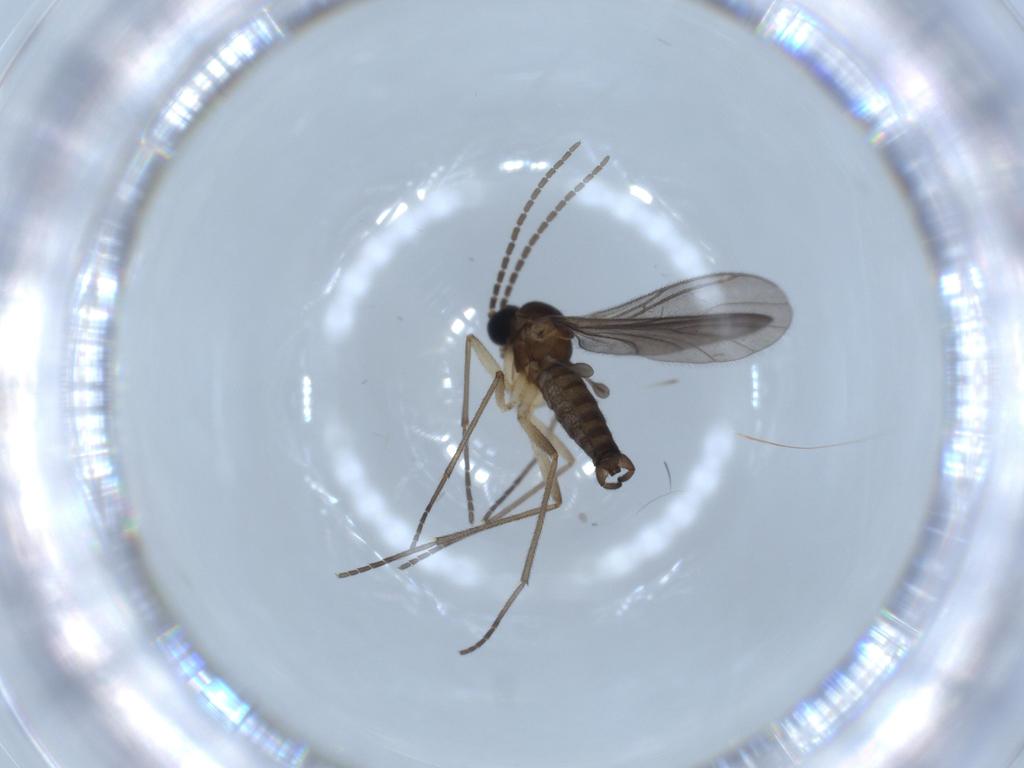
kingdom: Animalia
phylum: Arthropoda
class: Insecta
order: Diptera
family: Sciaridae
